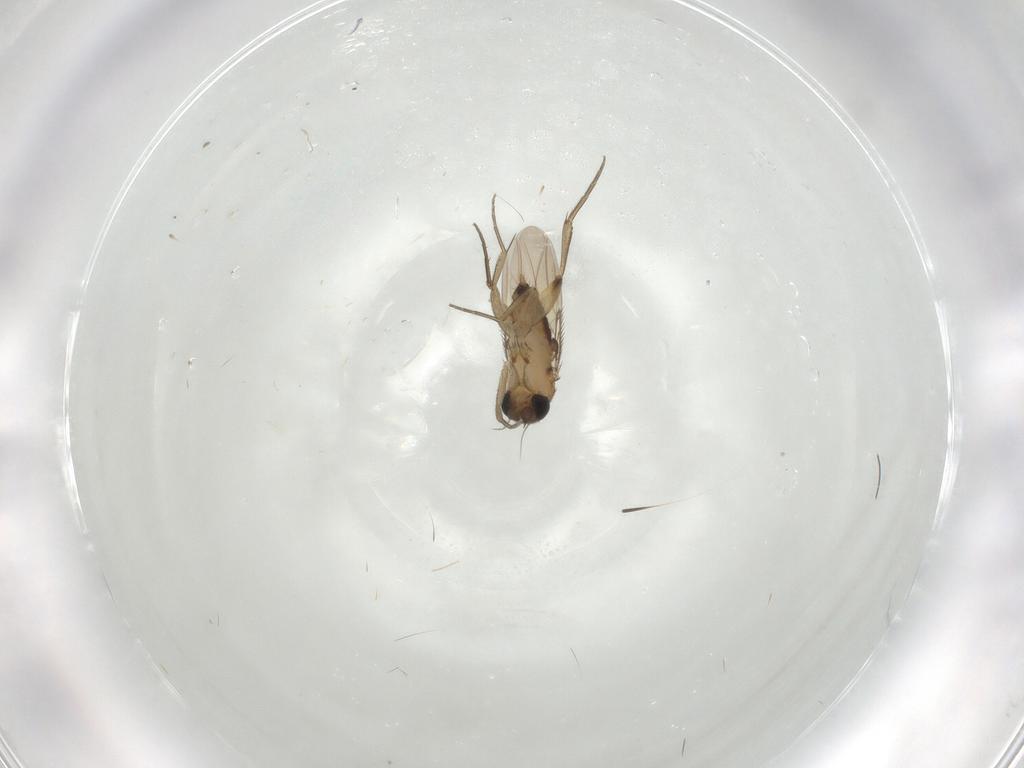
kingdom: Animalia
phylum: Arthropoda
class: Insecta
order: Diptera
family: Phoridae
